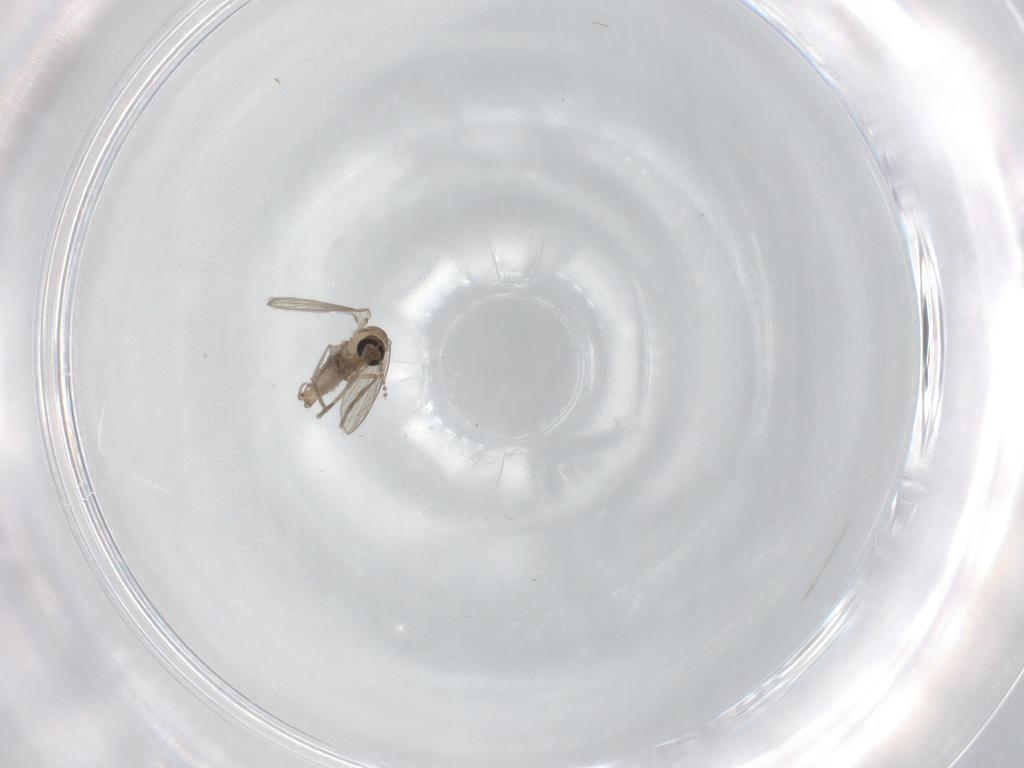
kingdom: Animalia
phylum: Arthropoda
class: Insecta
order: Diptera
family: Psychodidae
